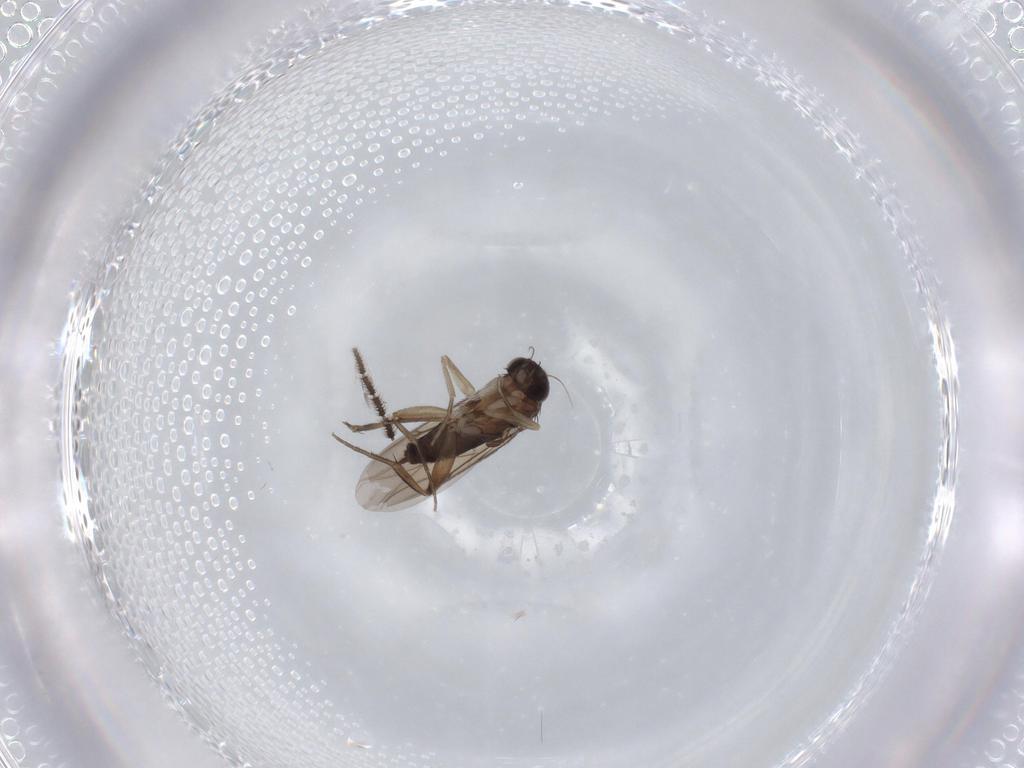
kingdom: Animalia
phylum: Arthropoda
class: Insecta
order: Diptera
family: Phoridae
